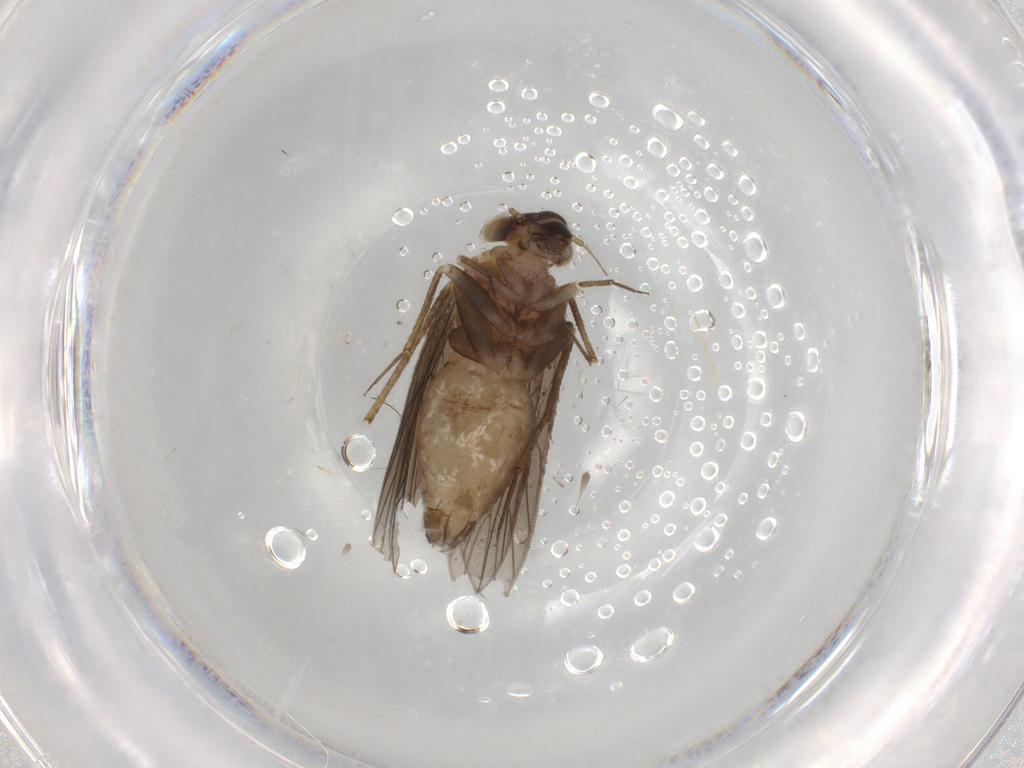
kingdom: Animalia
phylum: Arthropoda
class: Insecta
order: Psocodea
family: Lepidopsocidae
